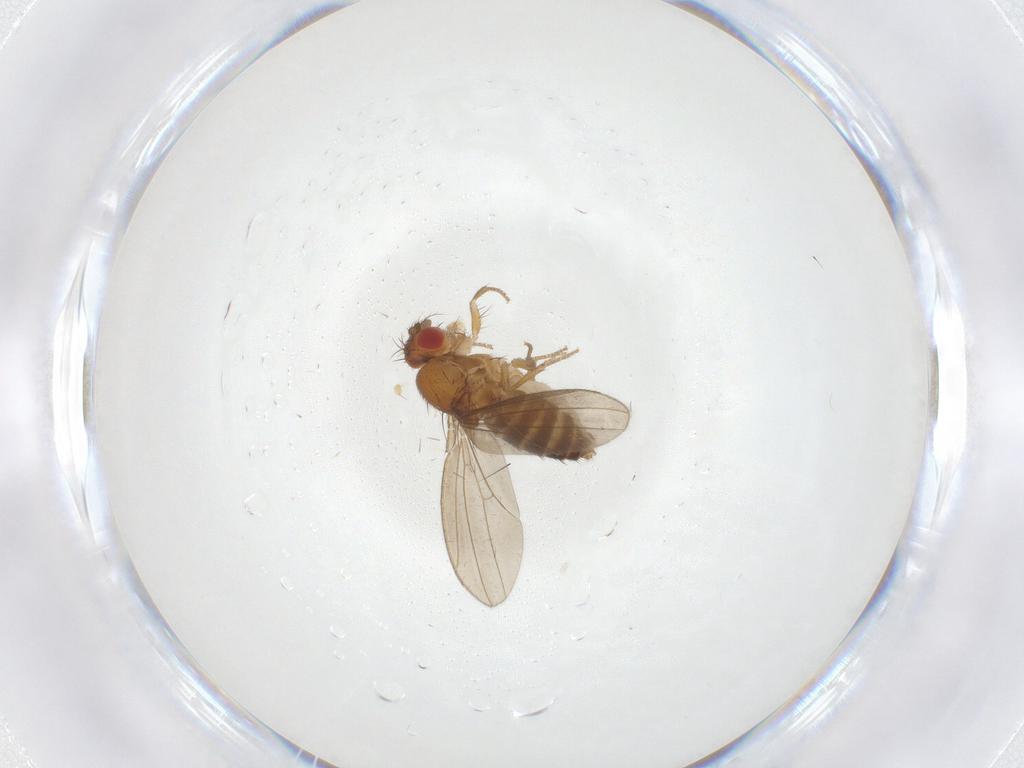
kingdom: Animalia
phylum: Arthropoda
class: Insecta
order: Diptera
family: Drosophilidae
